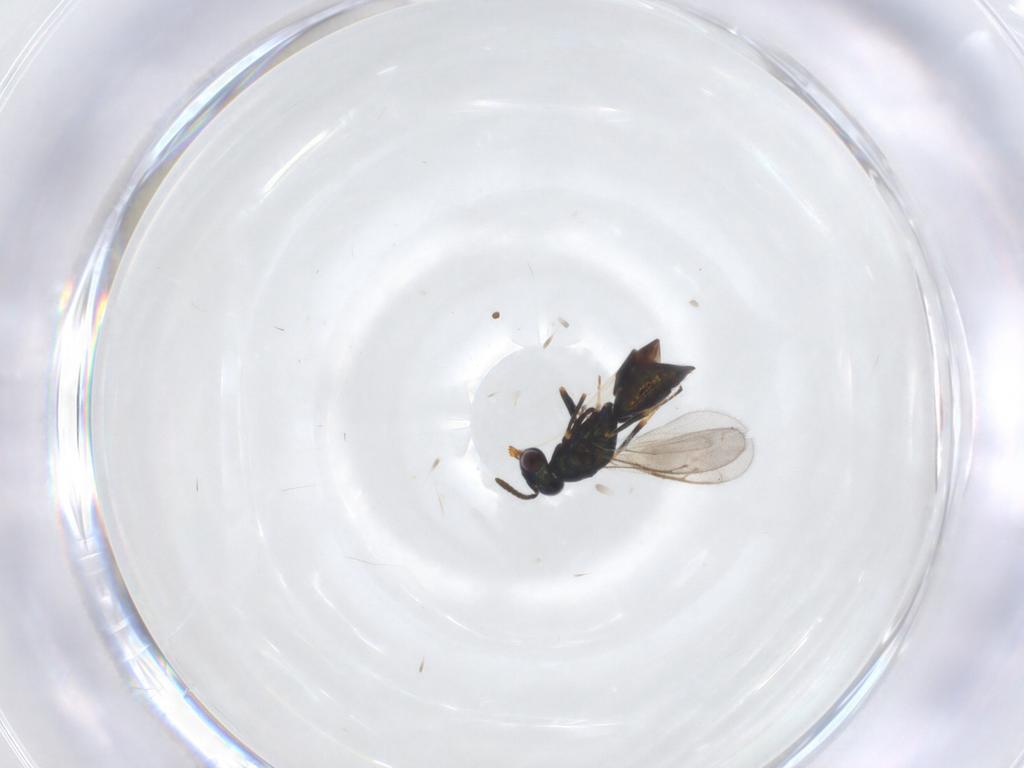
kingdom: Animalia
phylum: Arthropoda
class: Insecta
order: Hymenoptera
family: Pteromalidae
